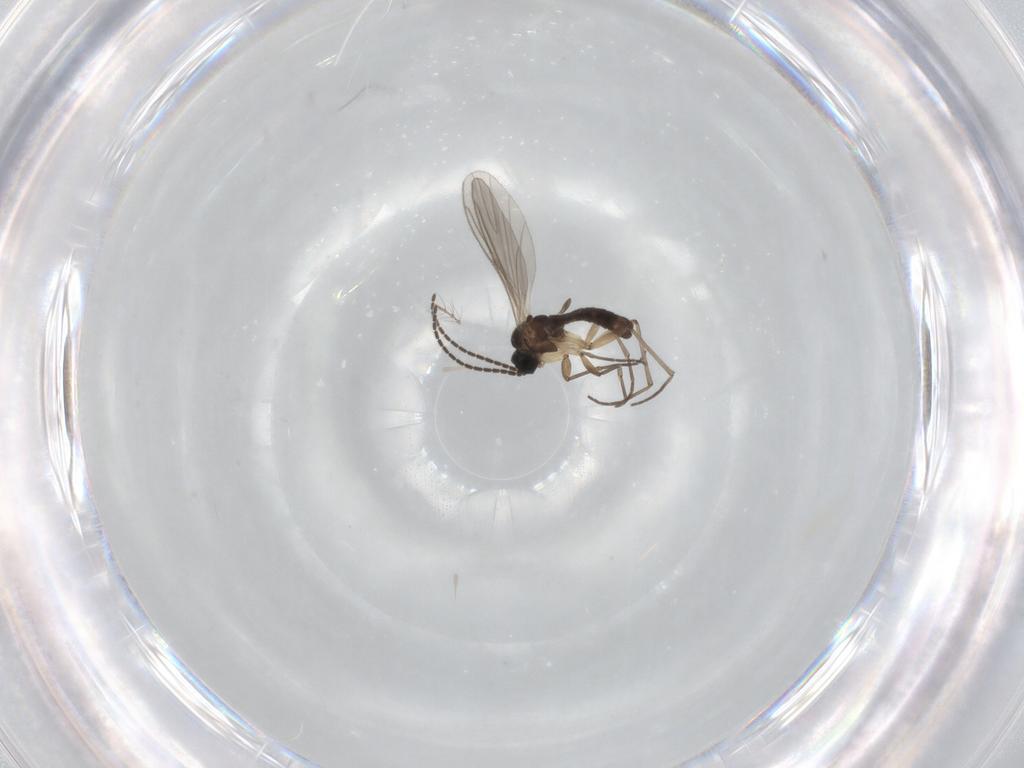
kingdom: Animalia
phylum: Arthropoda
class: Insecta
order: Diptera
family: Sciaridae
